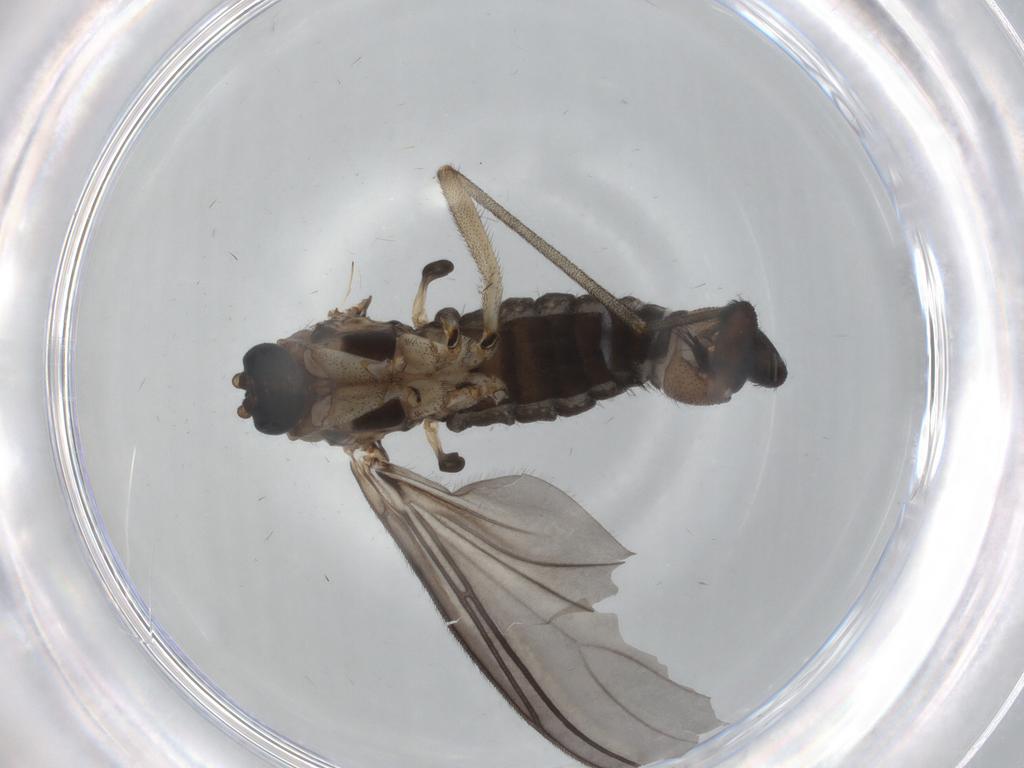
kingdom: Animalia
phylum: Arthropoda
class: Insecta
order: Diptera
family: Sciaridae
